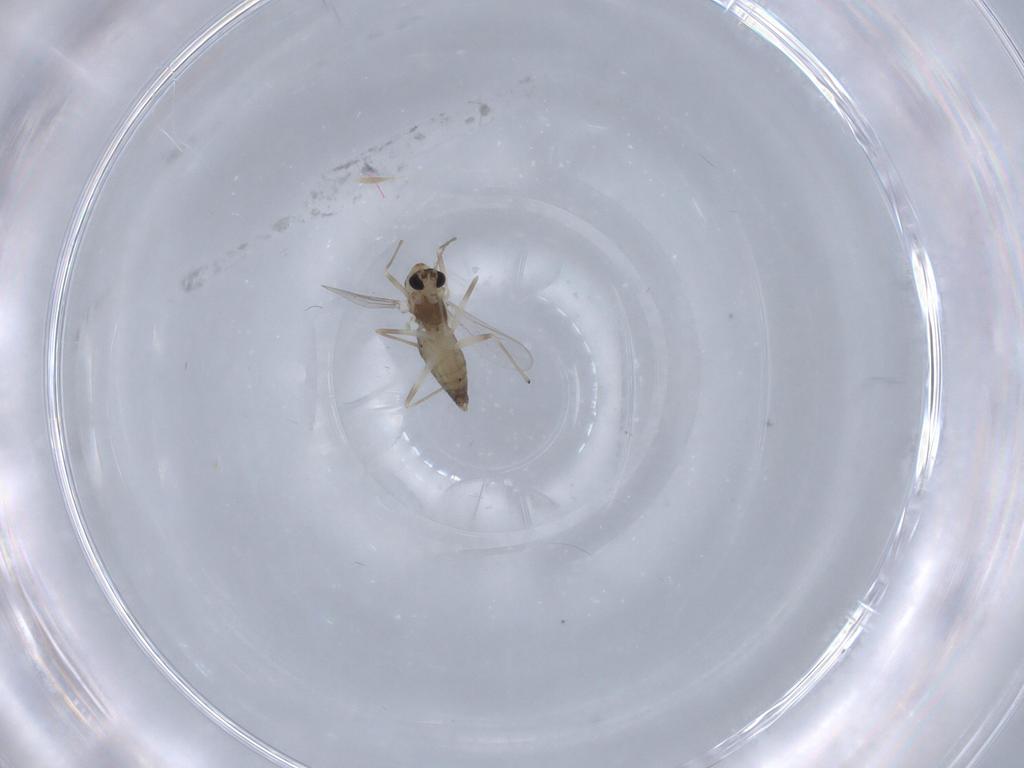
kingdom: Animalia
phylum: Arthropoda
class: Insecta
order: Diptera
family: Chironomidae
